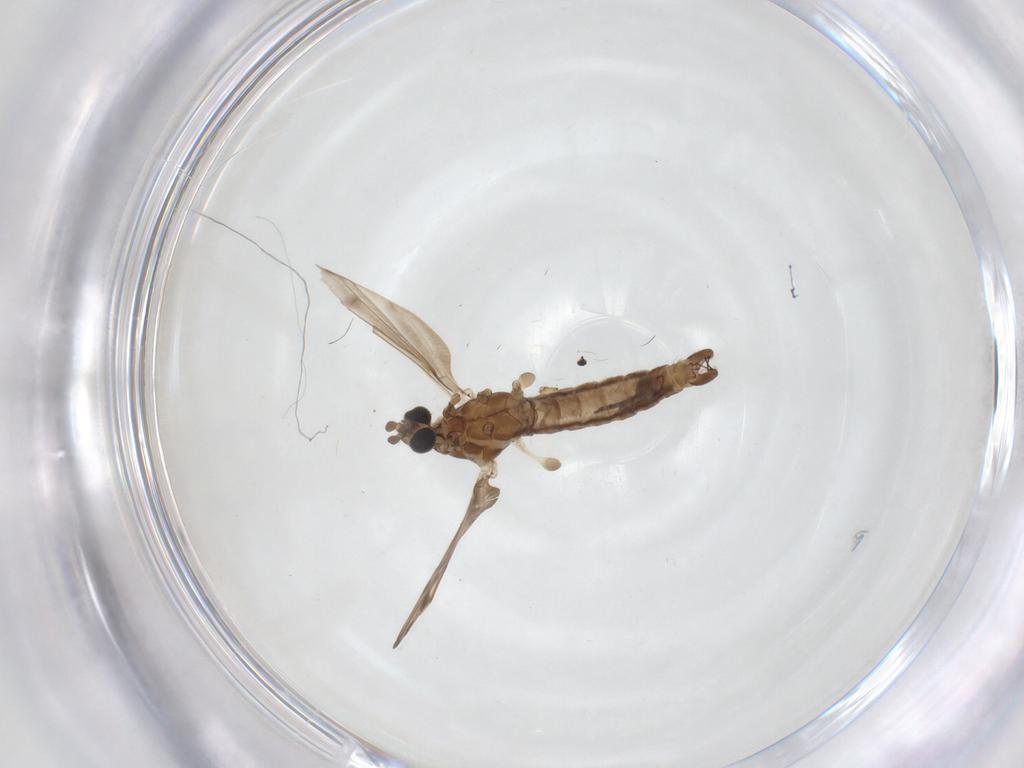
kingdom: Animalia
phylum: Arthropoda
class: Insecta
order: Diptera
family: Limoniidae
